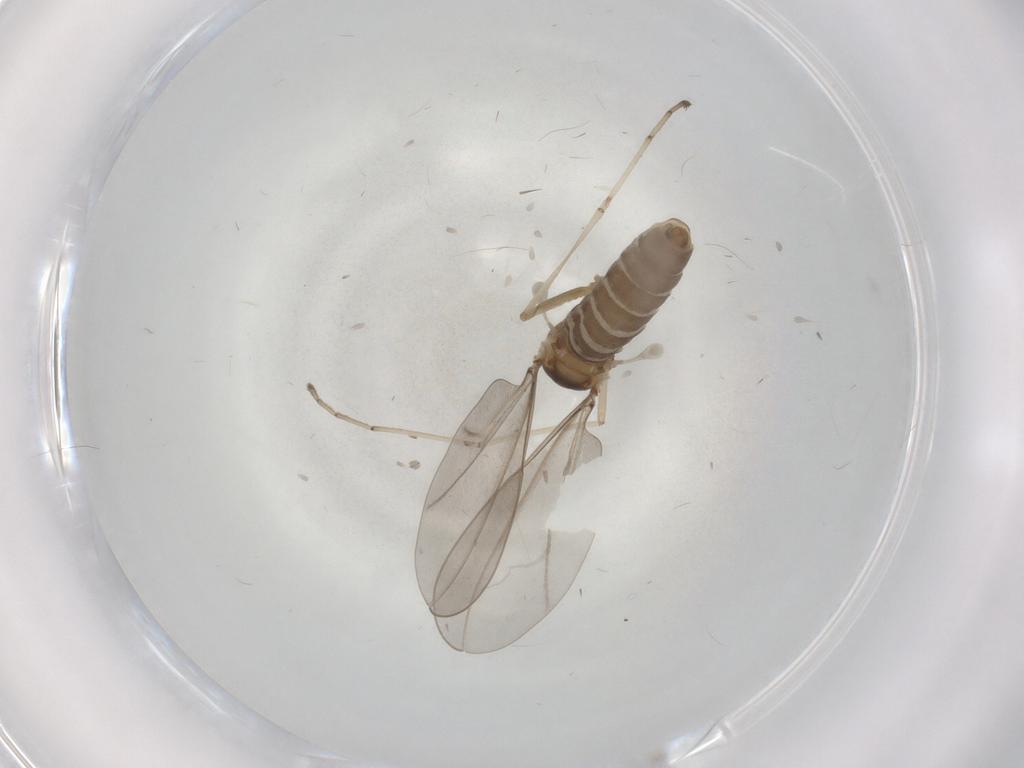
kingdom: Animalia
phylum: Arthropoda
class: Insecta
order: Diptera
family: Cecidomyiidae
